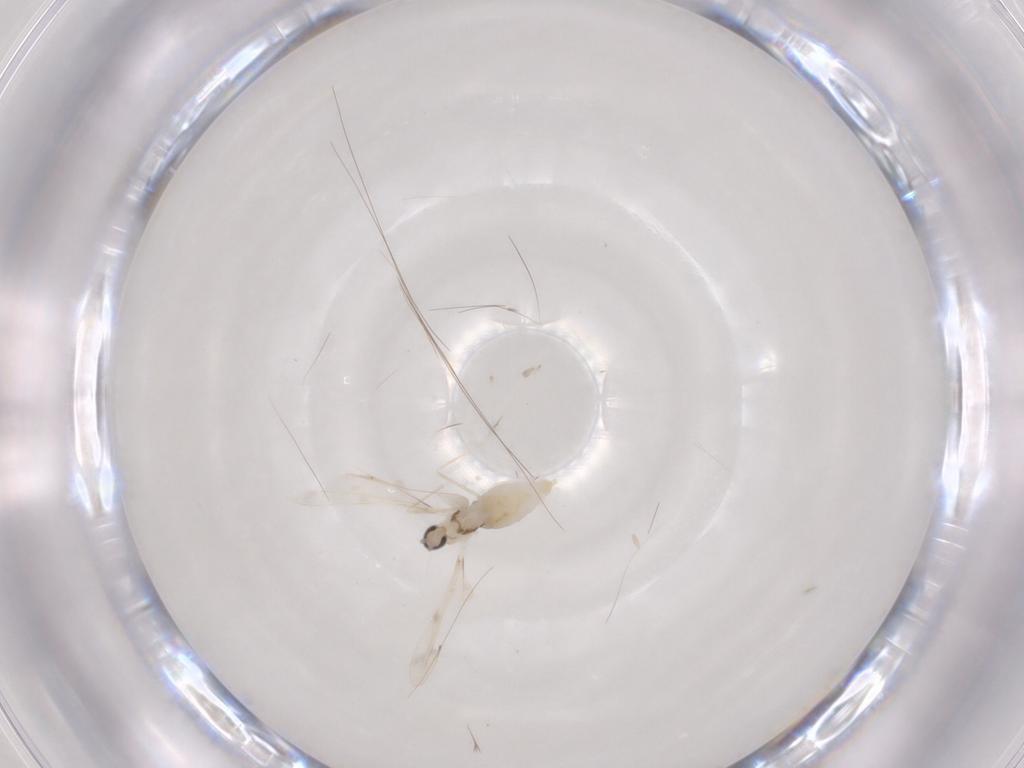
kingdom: Animalia
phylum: Arthropoda
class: Insecta
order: Diptera
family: Cecidomyiidae
